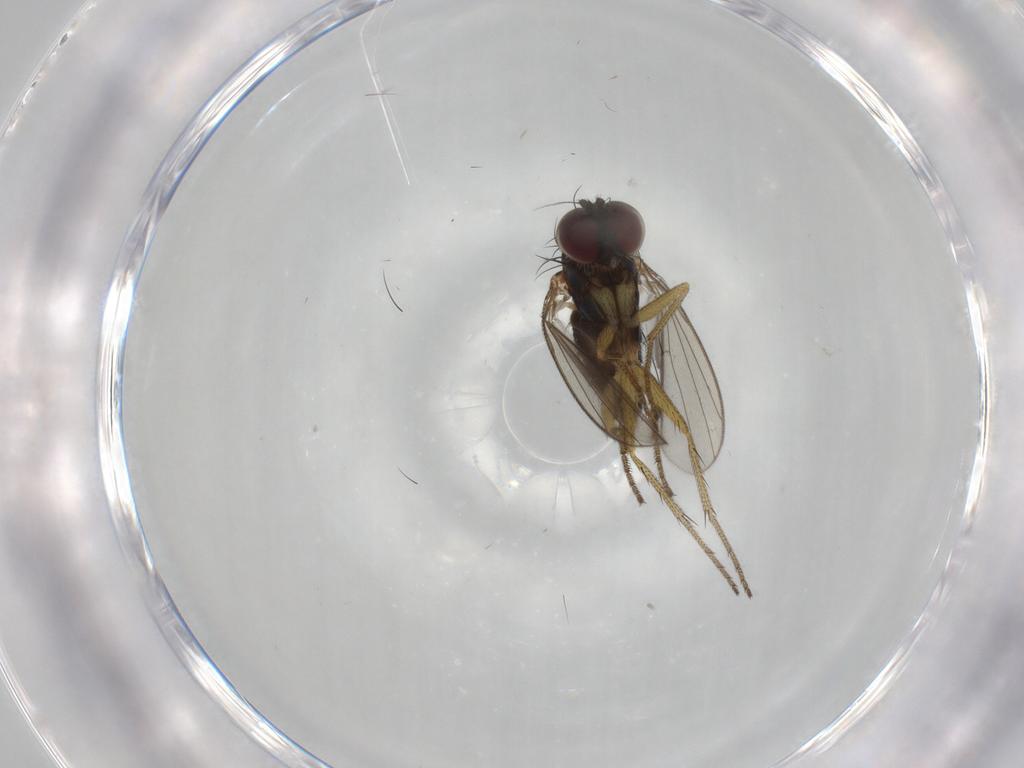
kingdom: Animalia
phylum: Arthropoda
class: Insecta
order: Diptera
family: Dolichopodidae
